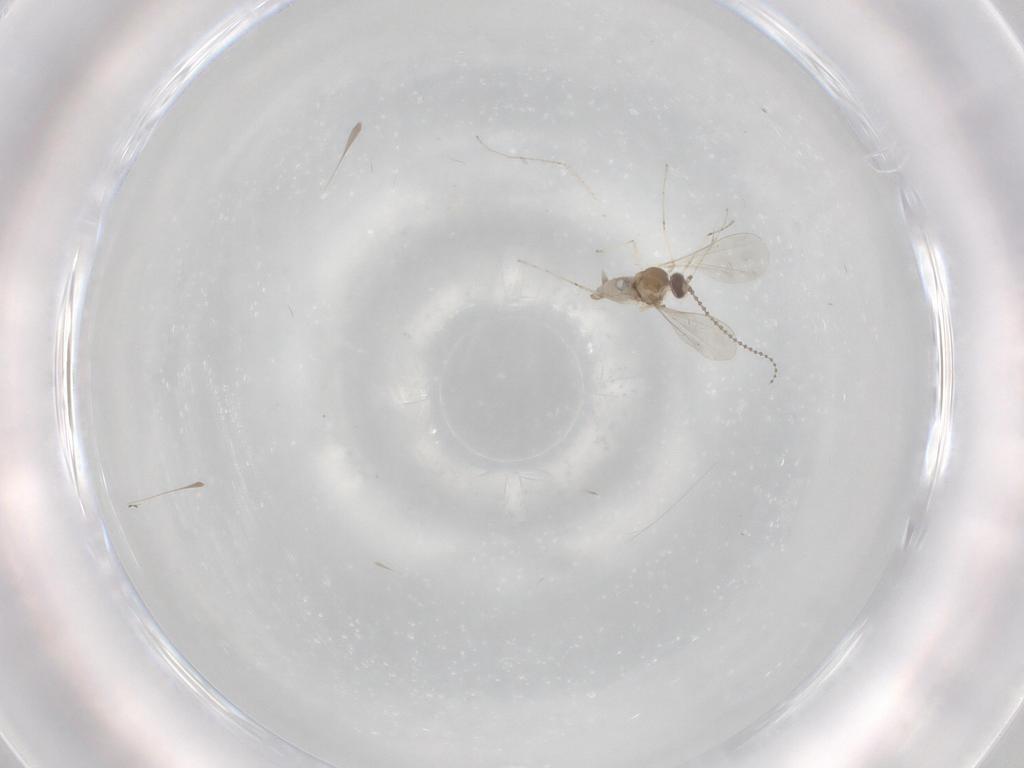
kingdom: Animalia
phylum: Arthropoda
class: Insecta
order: Diptera
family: Cecidomyiidae
